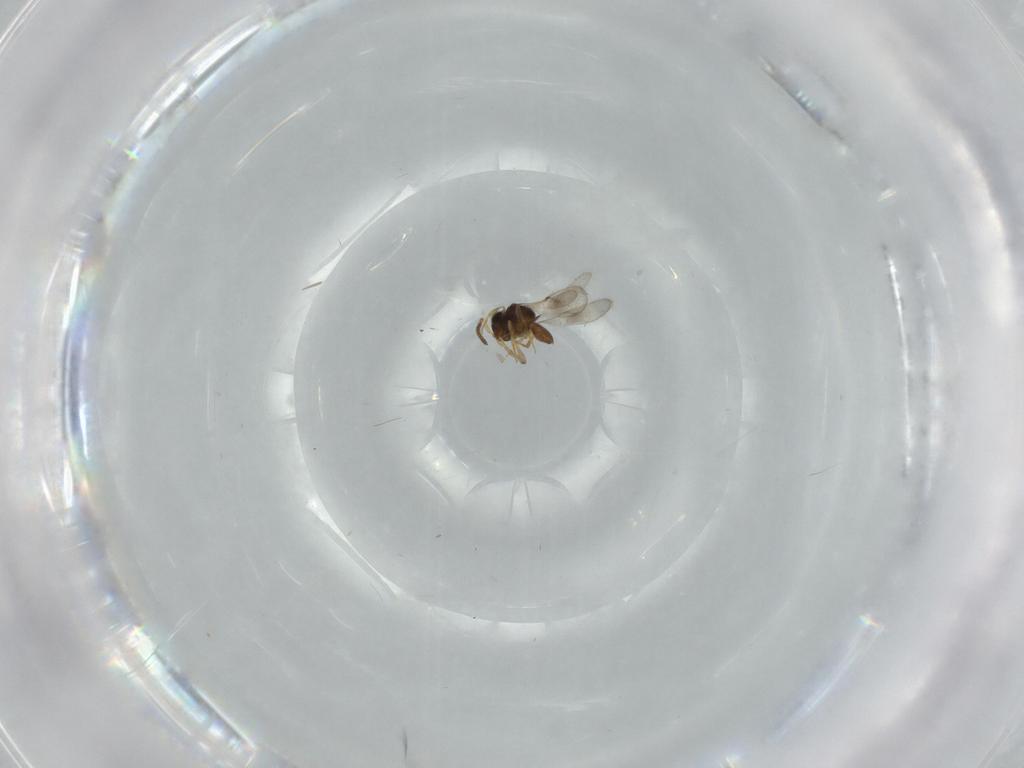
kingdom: Animalia
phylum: Arthropoda
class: Insecta
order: Hymenoptera
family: Scelionidae
